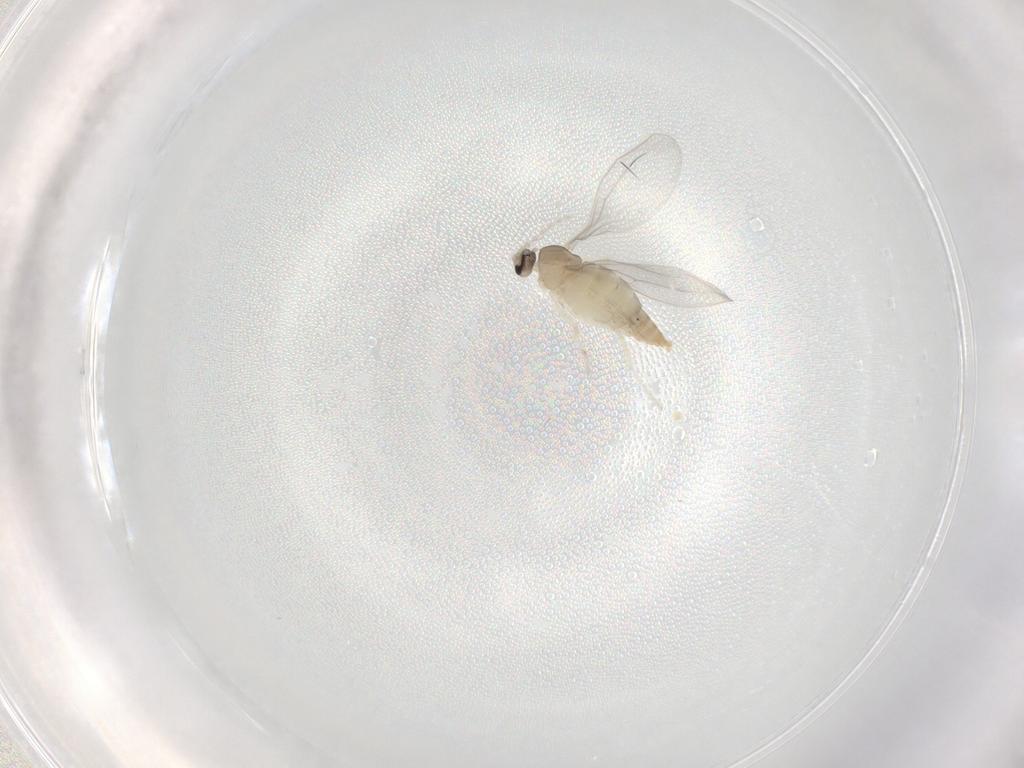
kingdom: Animalia
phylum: Arthropoda
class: Insecta
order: Diptera
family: Cecidomyiidae
